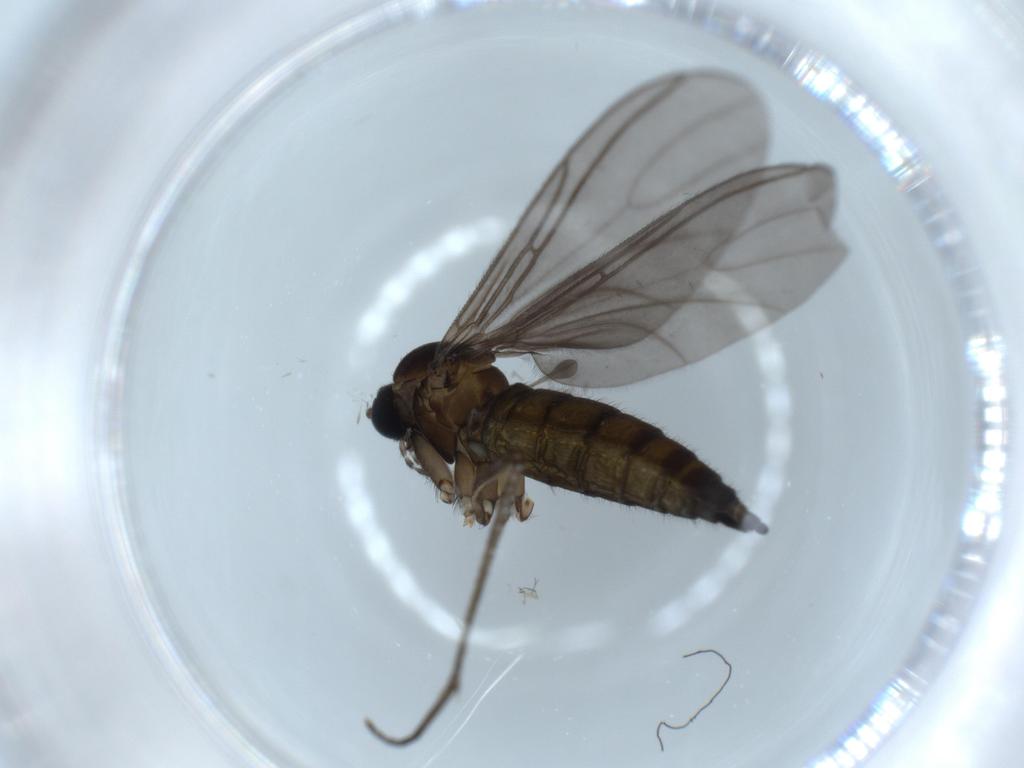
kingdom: Animalia
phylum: Arthropoda
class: Insecta
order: Diptera
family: Sciaridae
